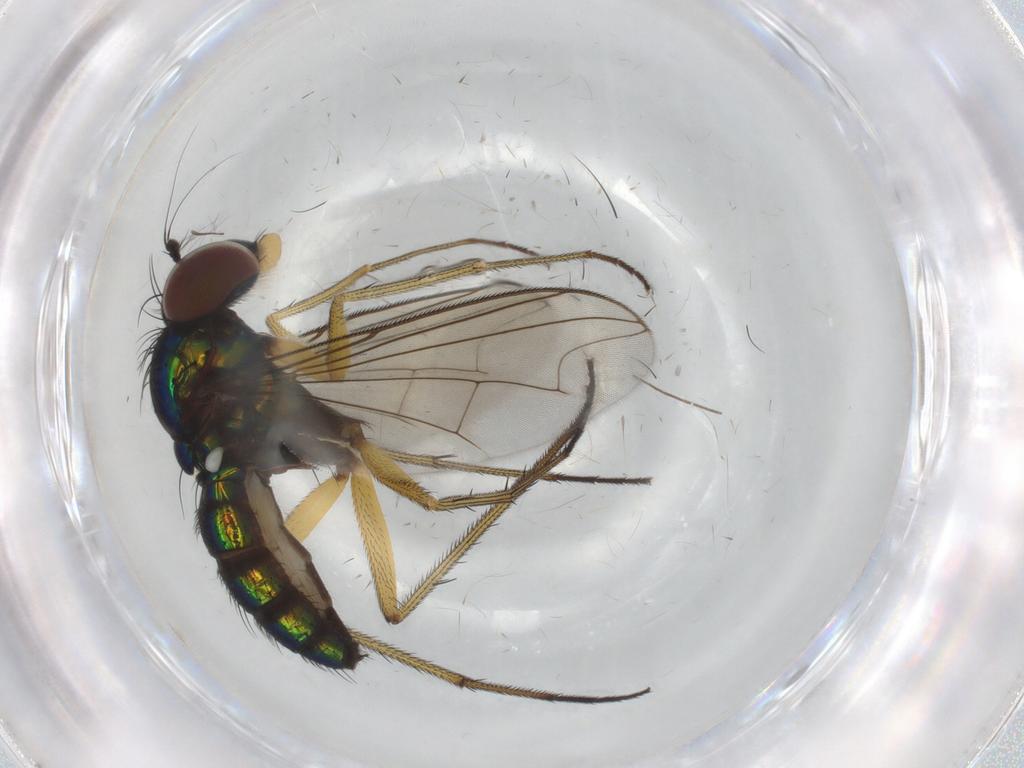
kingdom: Animalia
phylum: Arthropoda
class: Insecta
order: Diptera
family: Dolichopodidae
